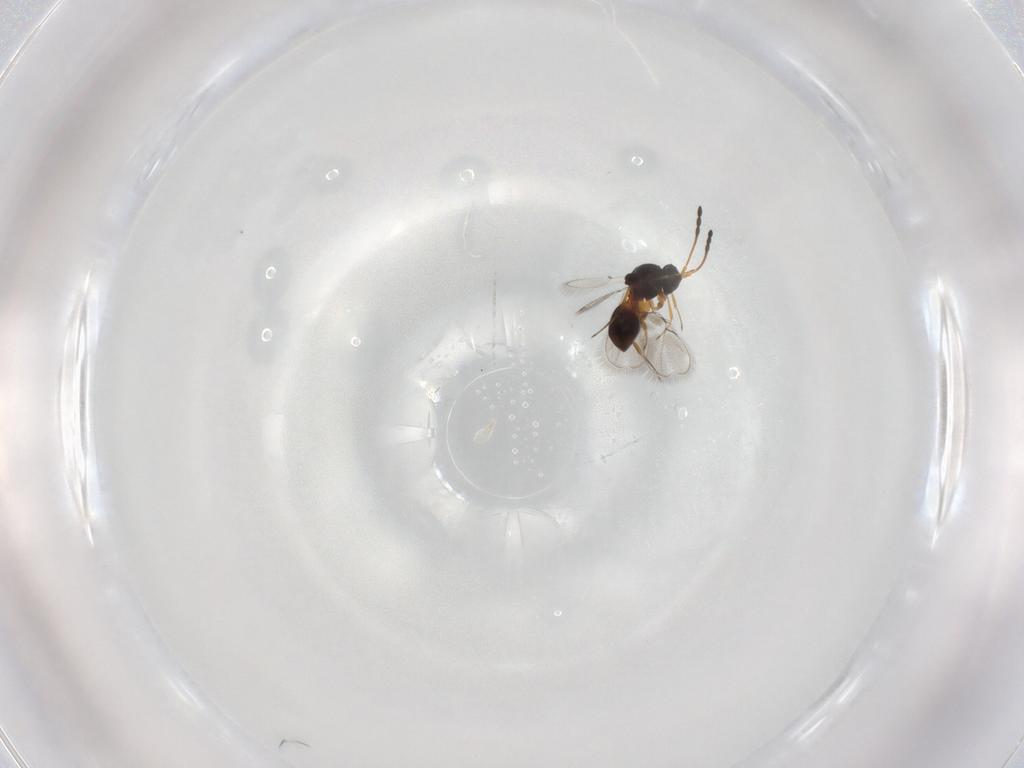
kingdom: Animalia
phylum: Arthropoda
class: Insecta
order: Hymenoptera
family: Figitidae
